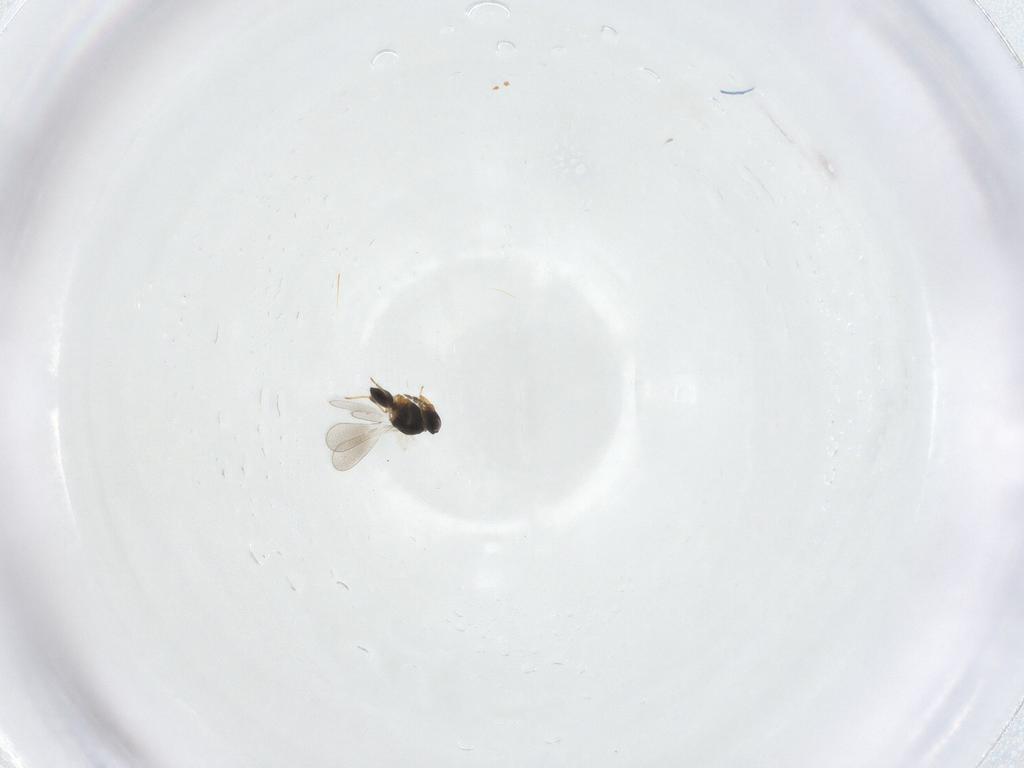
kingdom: Animalia
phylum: Arthropoda
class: Insecta
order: Hymenoptera
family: Platygastridae
